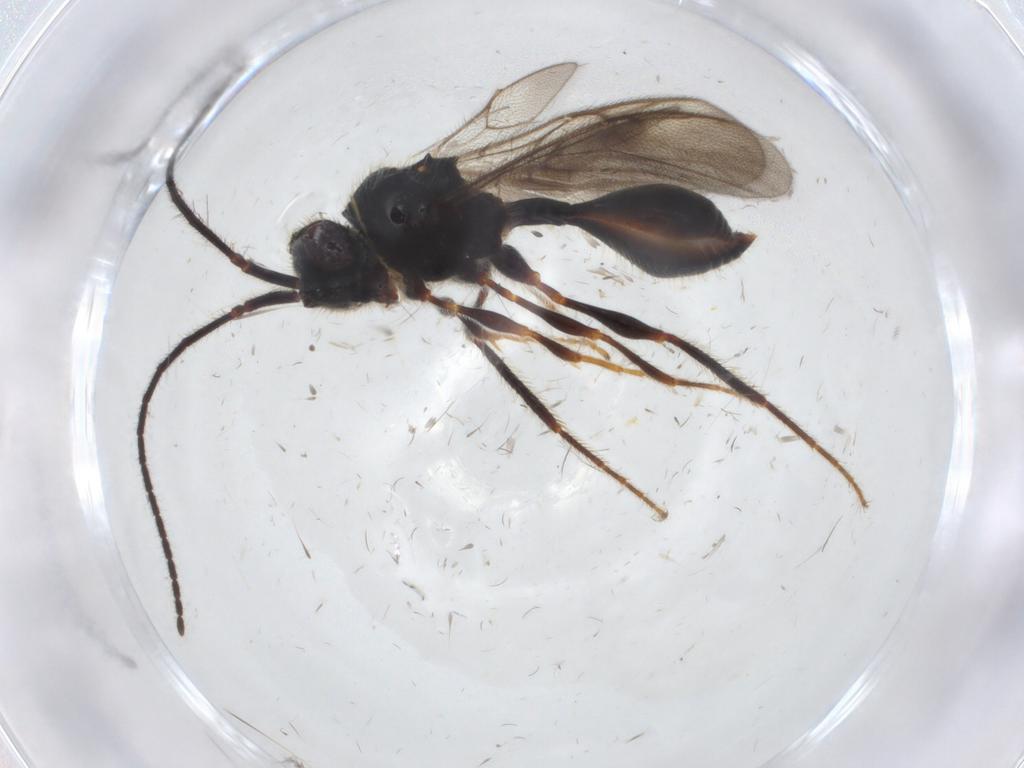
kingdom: Animalia
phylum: Arthropoda
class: Insecta
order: Hymenoptera
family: Diapriidae
